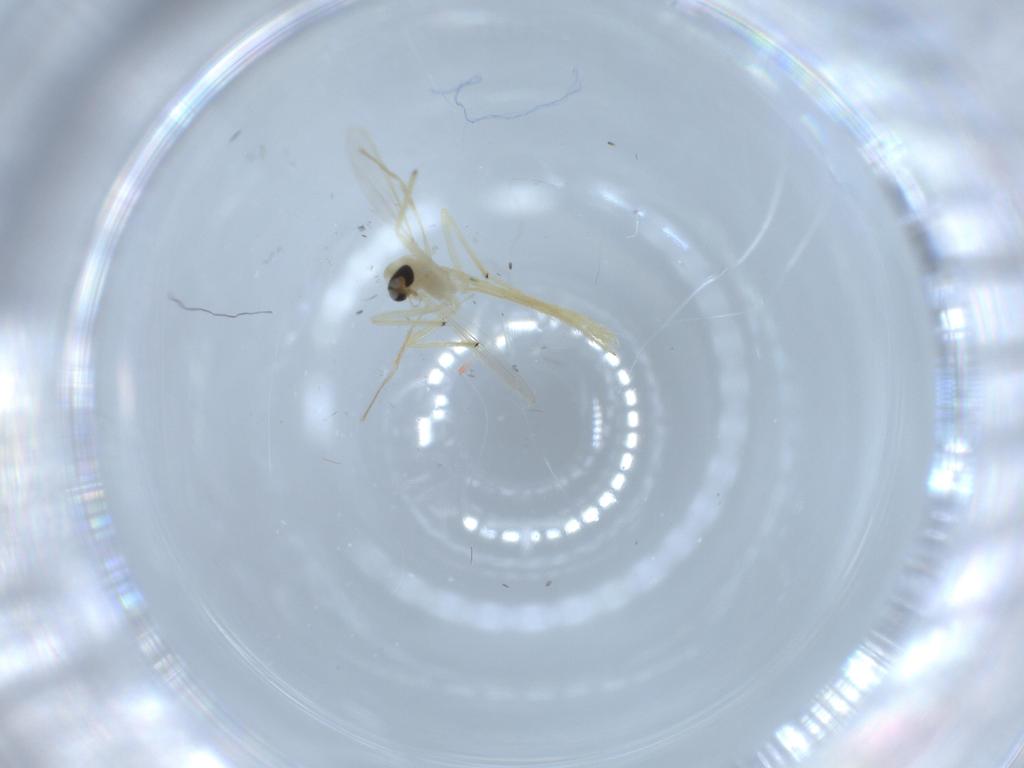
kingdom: Animalia
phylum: Arthropoda
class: Insecta
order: Diptera
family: Chironomidae
